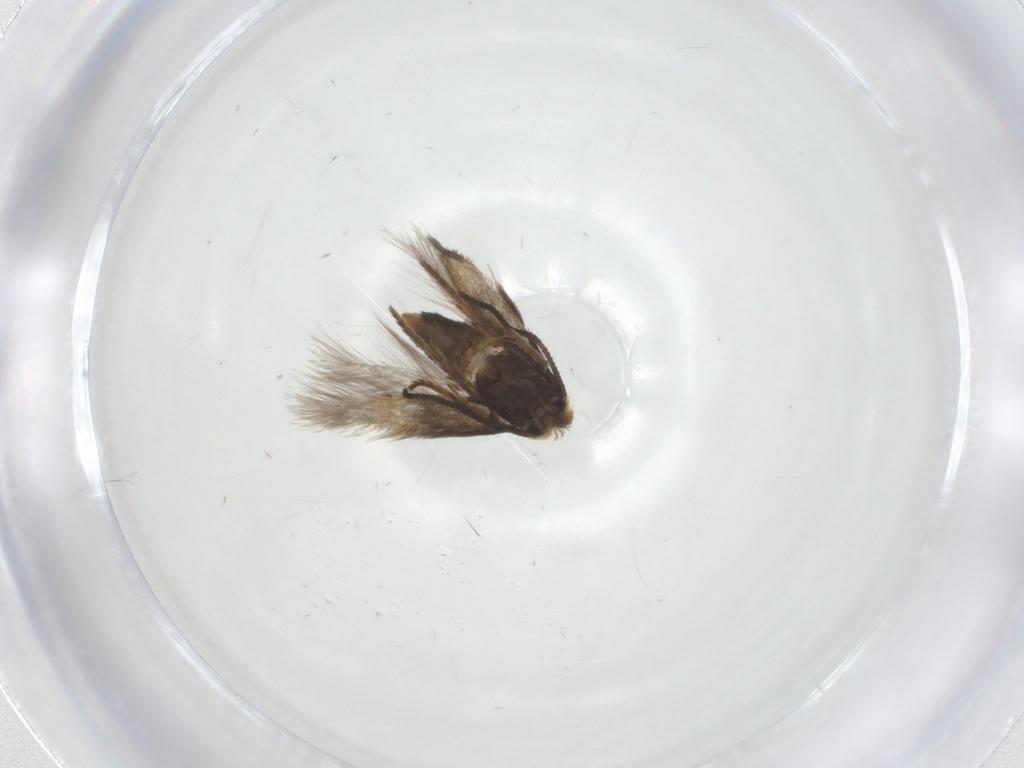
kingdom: Animalia
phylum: Arthropoda
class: Insecta
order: Lepidoptera
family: Nepticulidae
